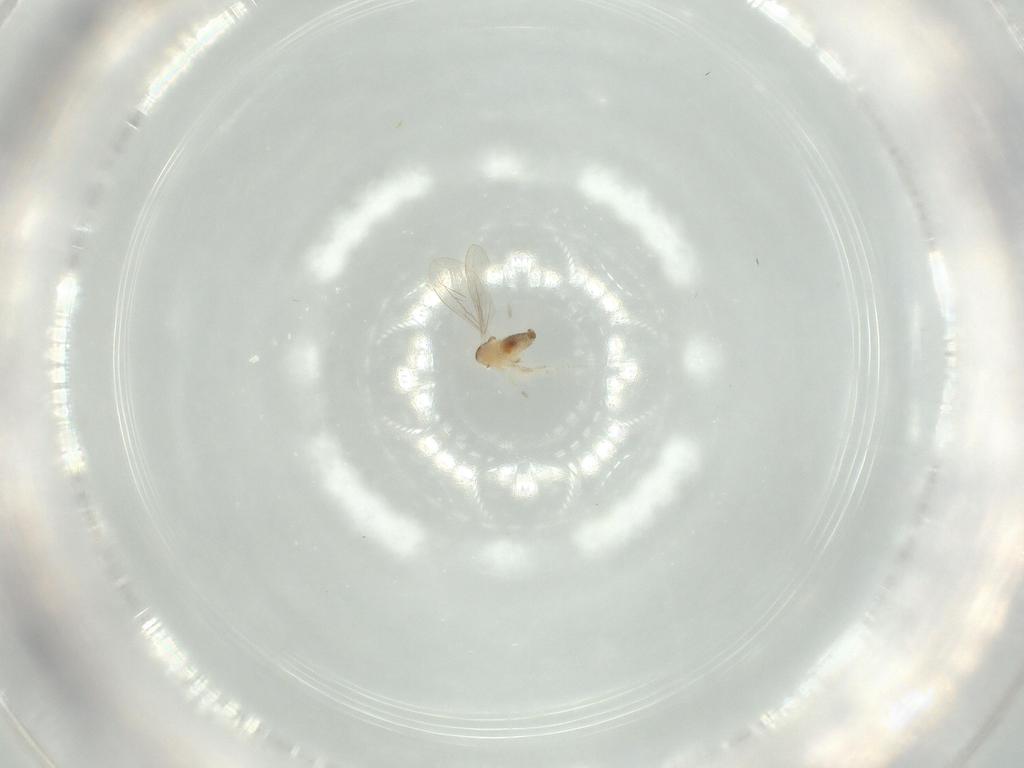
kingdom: Animalia
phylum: Arthropoda
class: Insecta
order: Diptera
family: Cecidomyiidae
